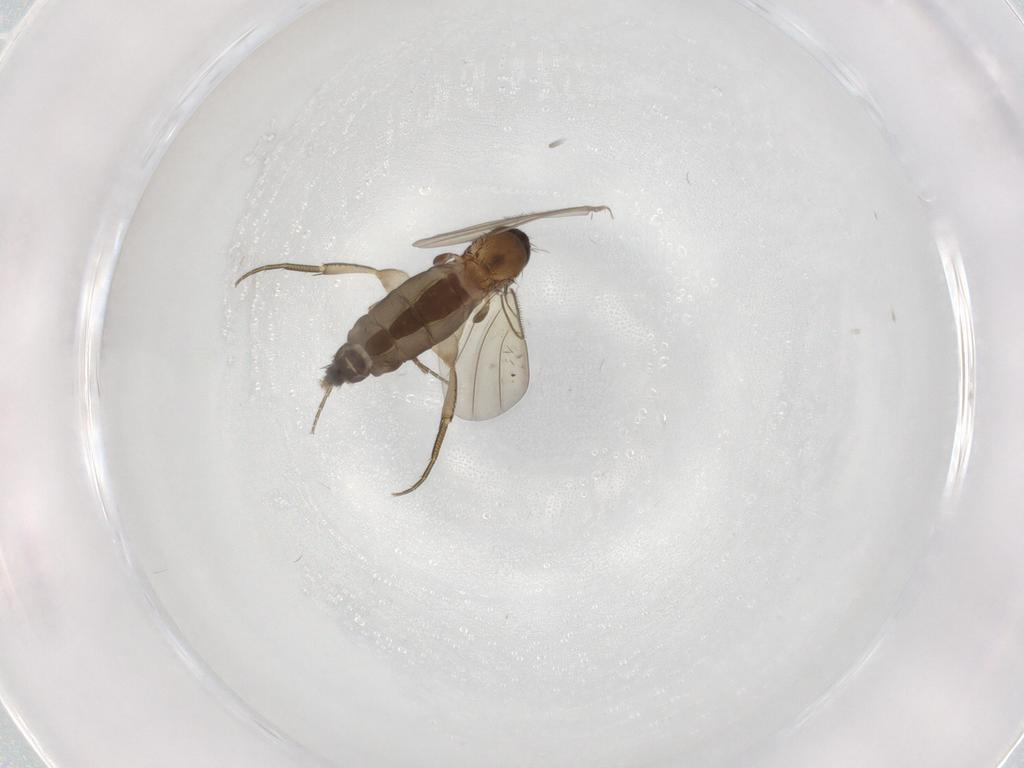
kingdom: Animalia
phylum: Arthropoda
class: Insecta
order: Diptera
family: Phoridae
